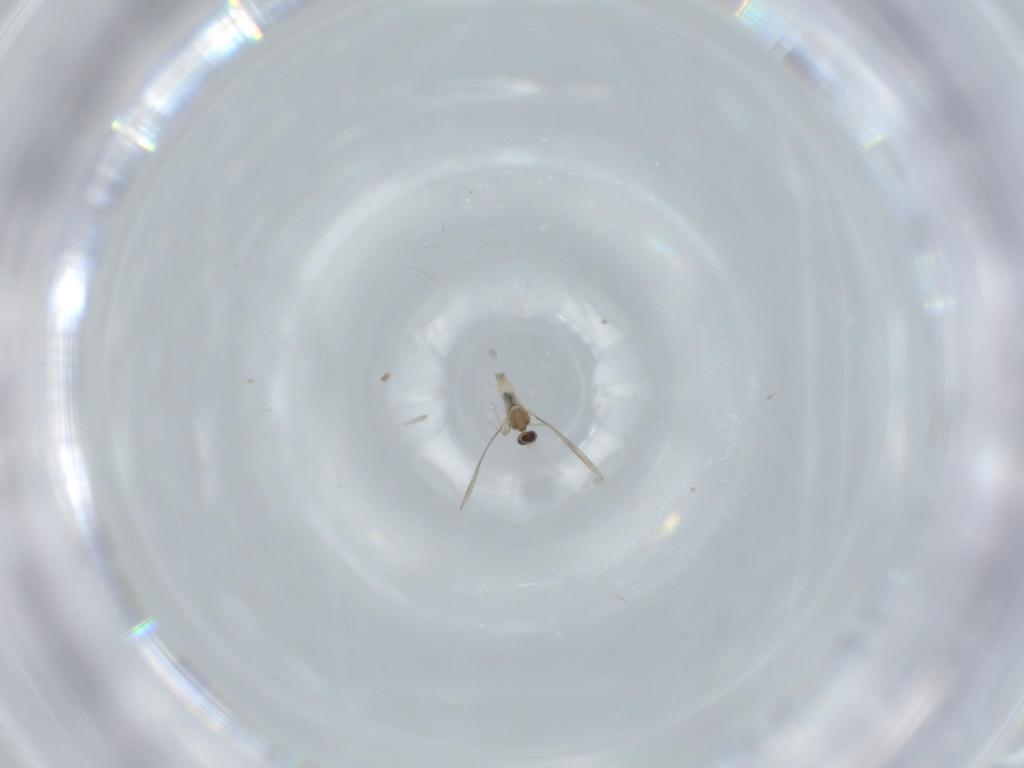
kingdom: Animalia
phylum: Arthropoda
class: Insecta
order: Diptera
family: Cecidomyiidae
